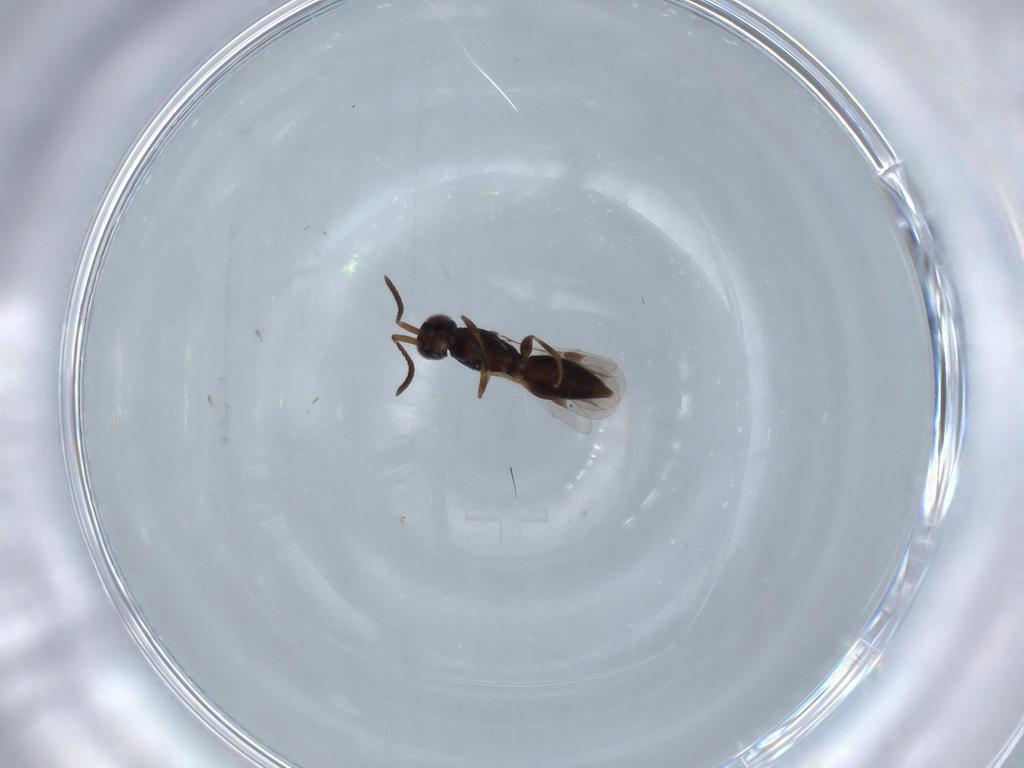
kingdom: Animalia
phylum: Arthropoda
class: Insecta
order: Hymenoptera
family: Megaspilidae
